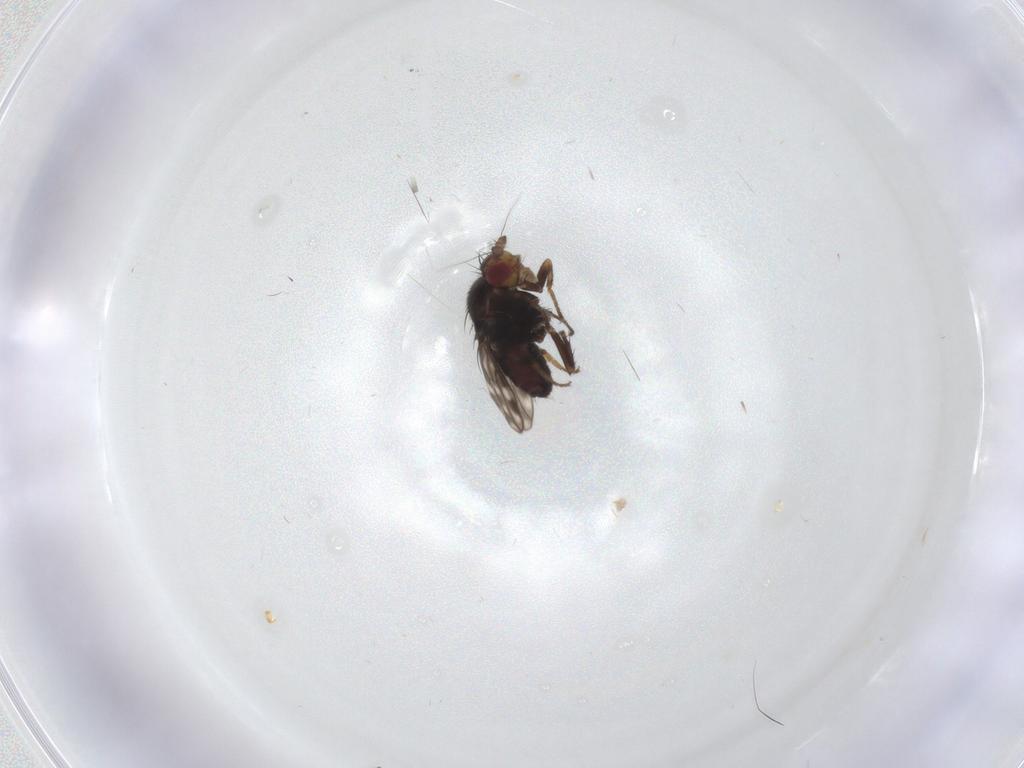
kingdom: Animalia
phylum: Arthropoda
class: Insecta
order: Diptera
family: Sphaeroceridae
